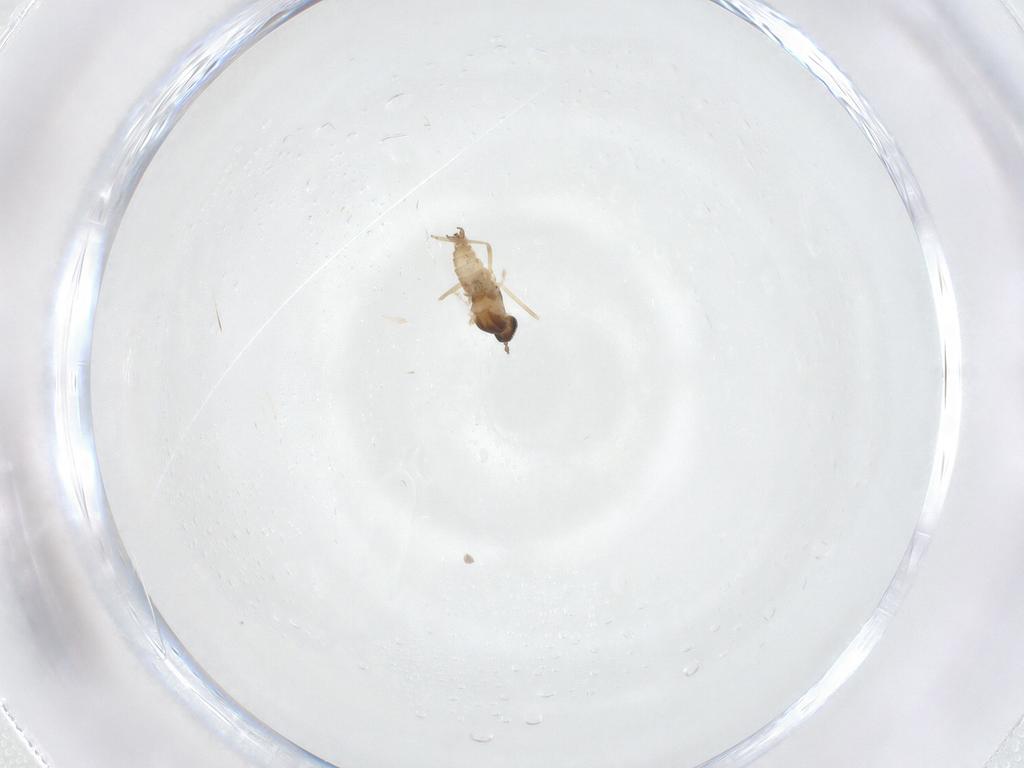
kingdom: Animalia
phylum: Arthropoda
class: Insecta
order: Diptera
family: Cecidomyiidae
